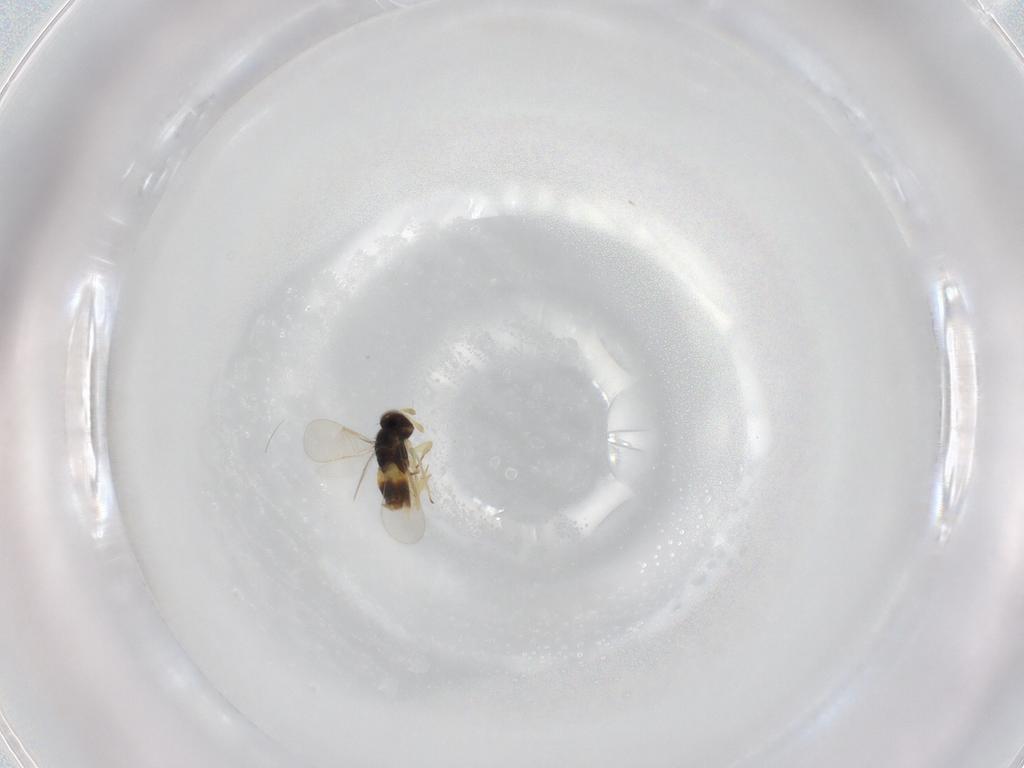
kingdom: Animalia
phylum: Arthropoda
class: Insecta
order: Hymenoptera
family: Aphelinidae
